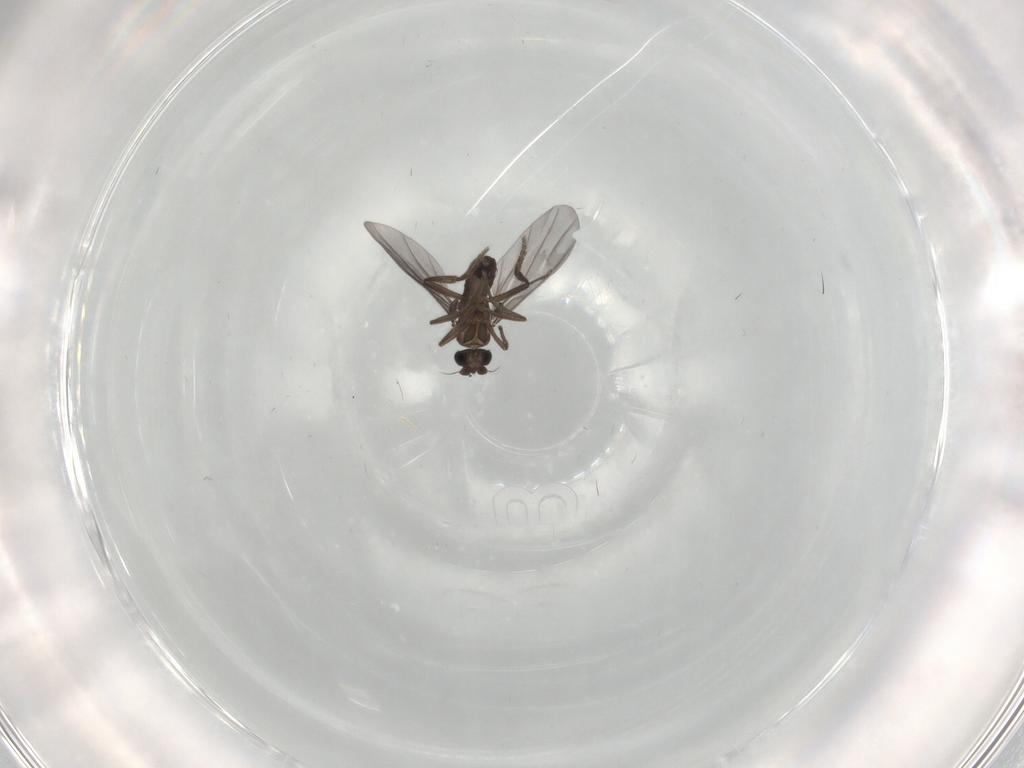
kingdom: Animalia
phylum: Arthropoda
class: Insecta
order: Diptera
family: Phoridae
